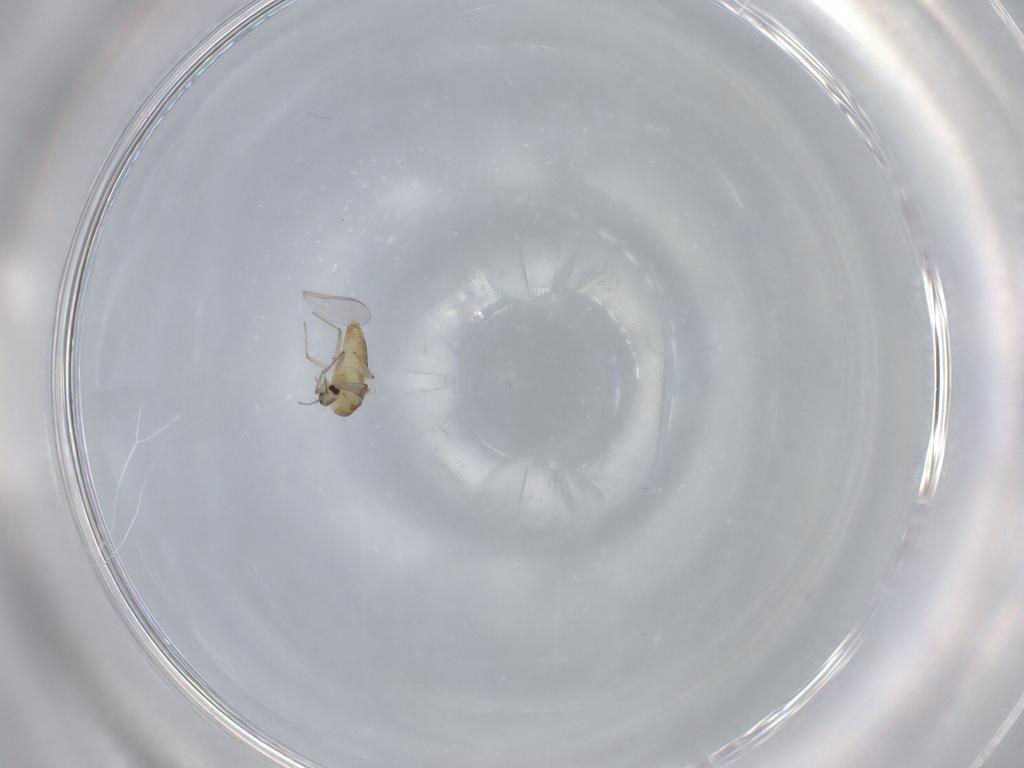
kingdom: Animalia
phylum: Arthropoda
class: Insecta
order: Diptera
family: Chironomidae
